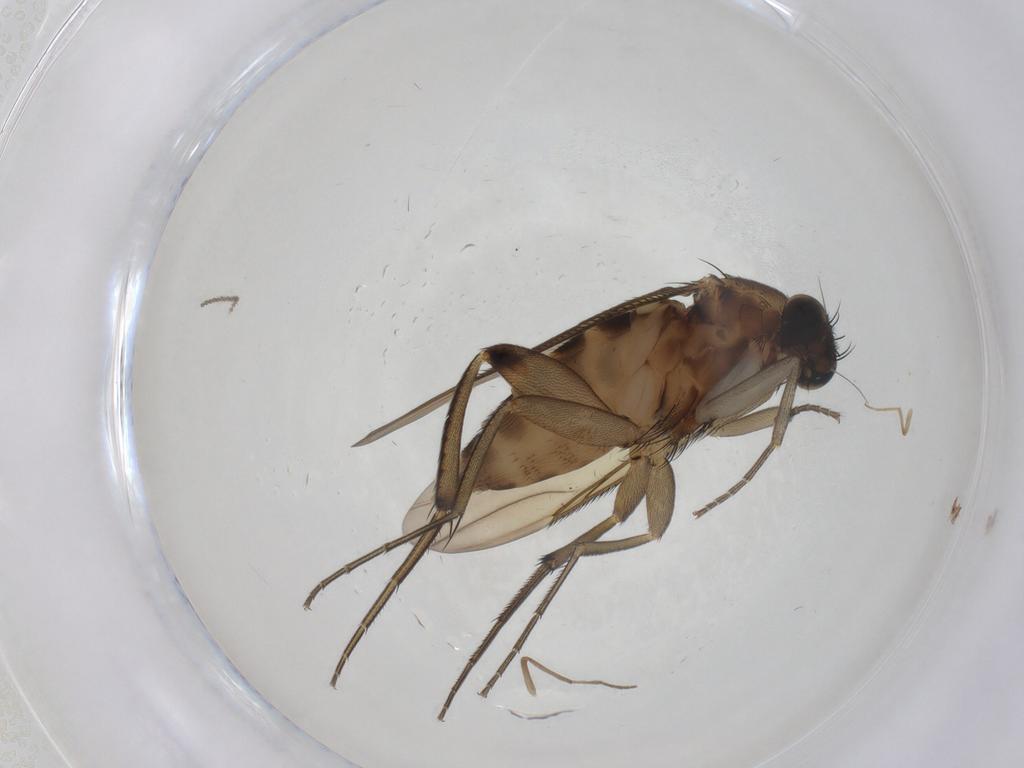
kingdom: Animalia
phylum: Arthropoda
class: Insecta
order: Diptera
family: Phoridae
